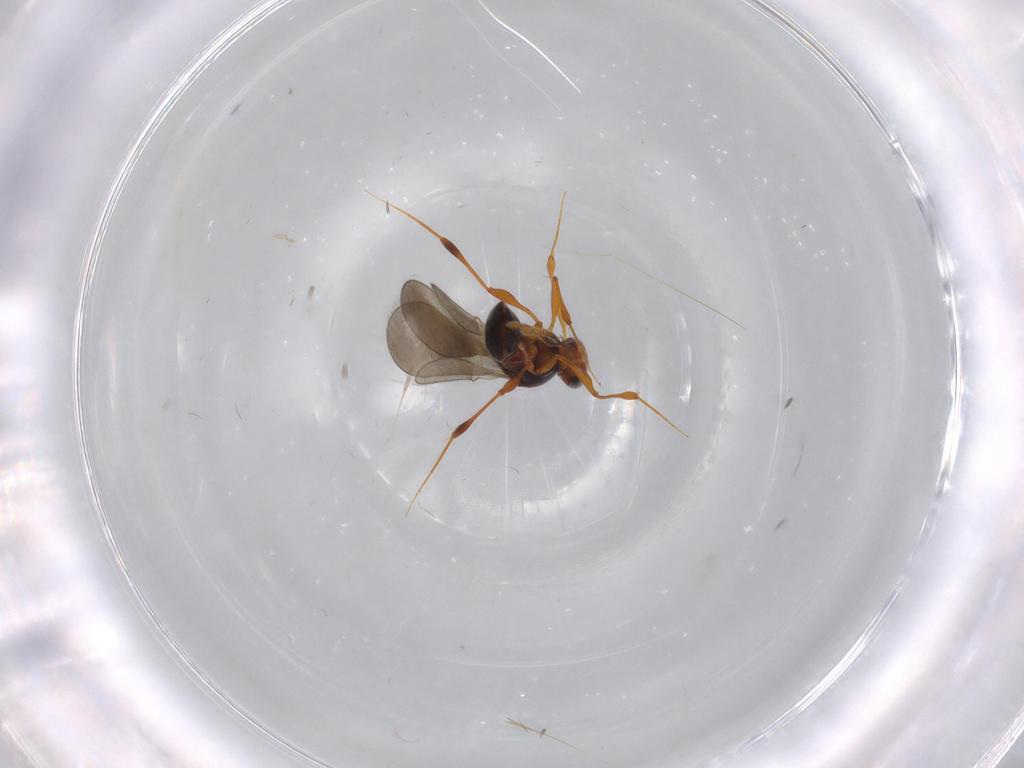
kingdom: Animalia
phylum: Arthropoda
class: Insecta
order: Hymenoptera
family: Platygastridae
